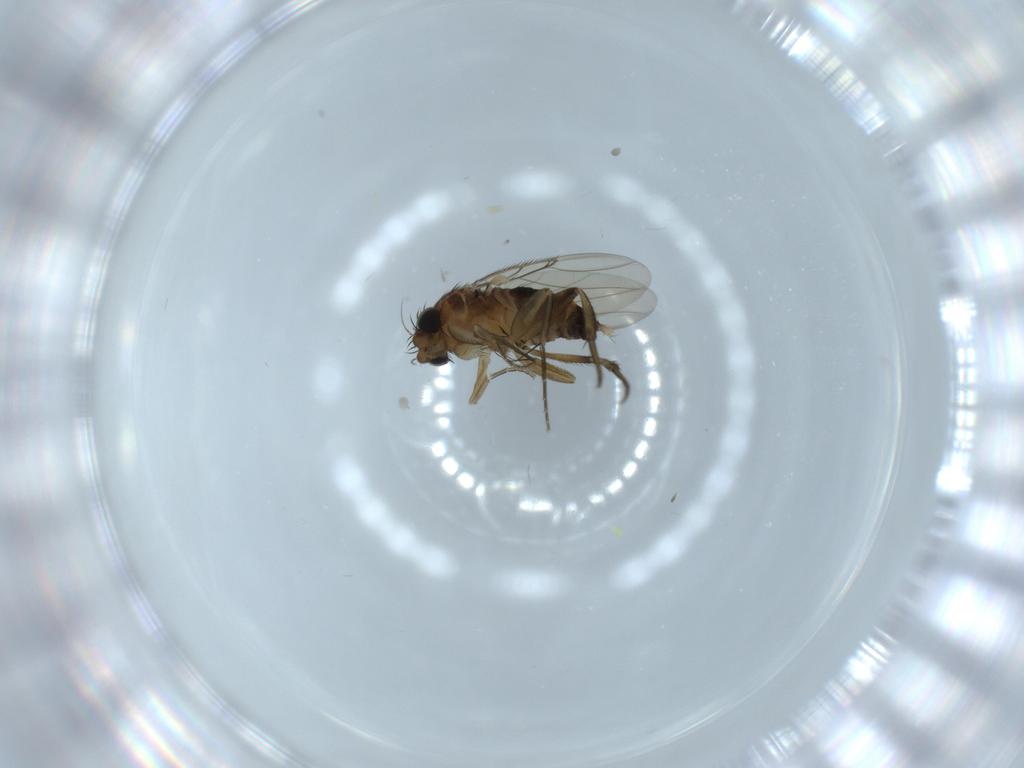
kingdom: Animalia
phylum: Arthropoda
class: Insecta
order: Diptera
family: Phoridae
